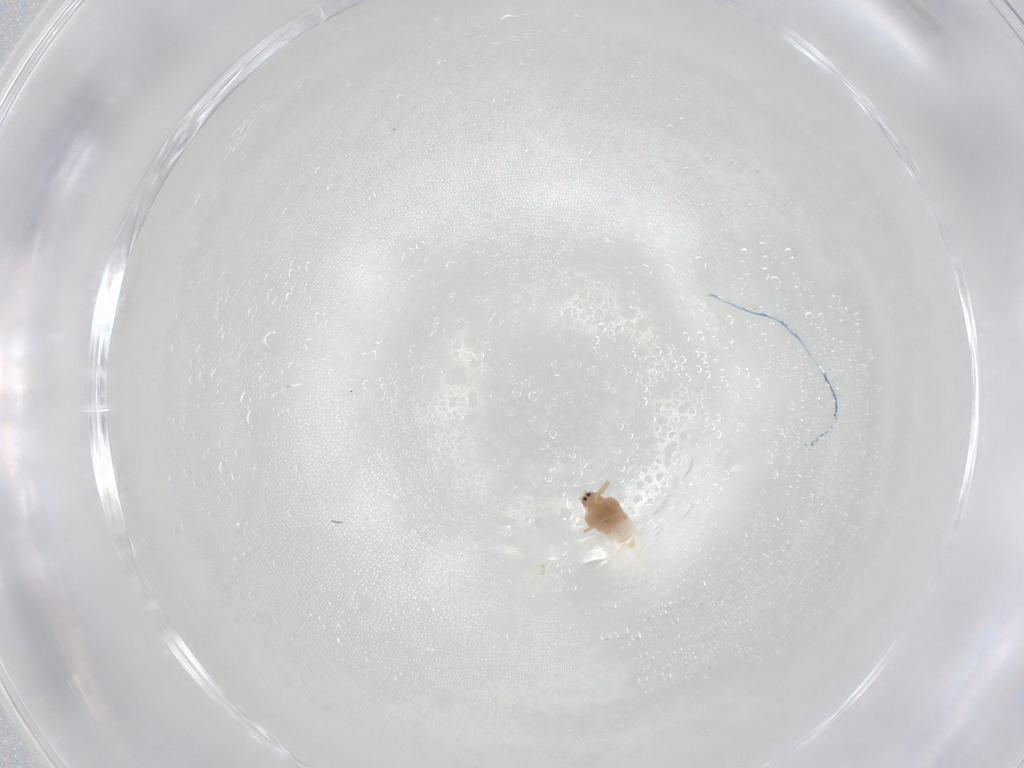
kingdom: Animalia
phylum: Arthropoda
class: Insecta
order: Hemiptera
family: Diaspididae
